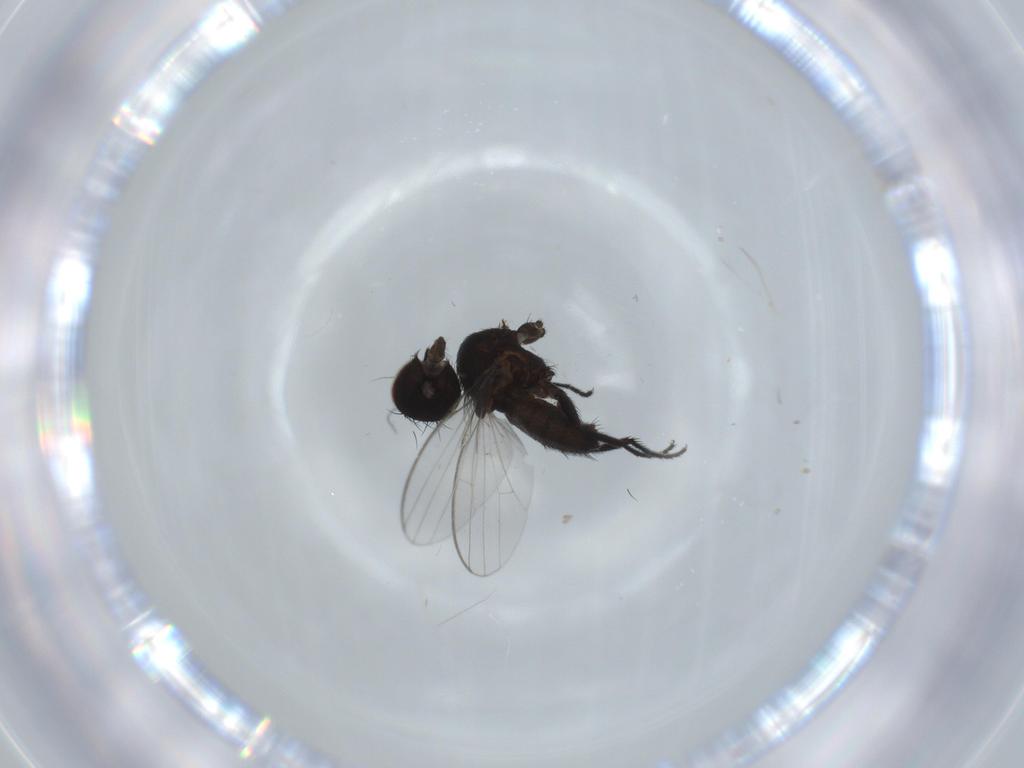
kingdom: Animalia
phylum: Arthropoda
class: Insecta
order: Diptera
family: Milichiidae
